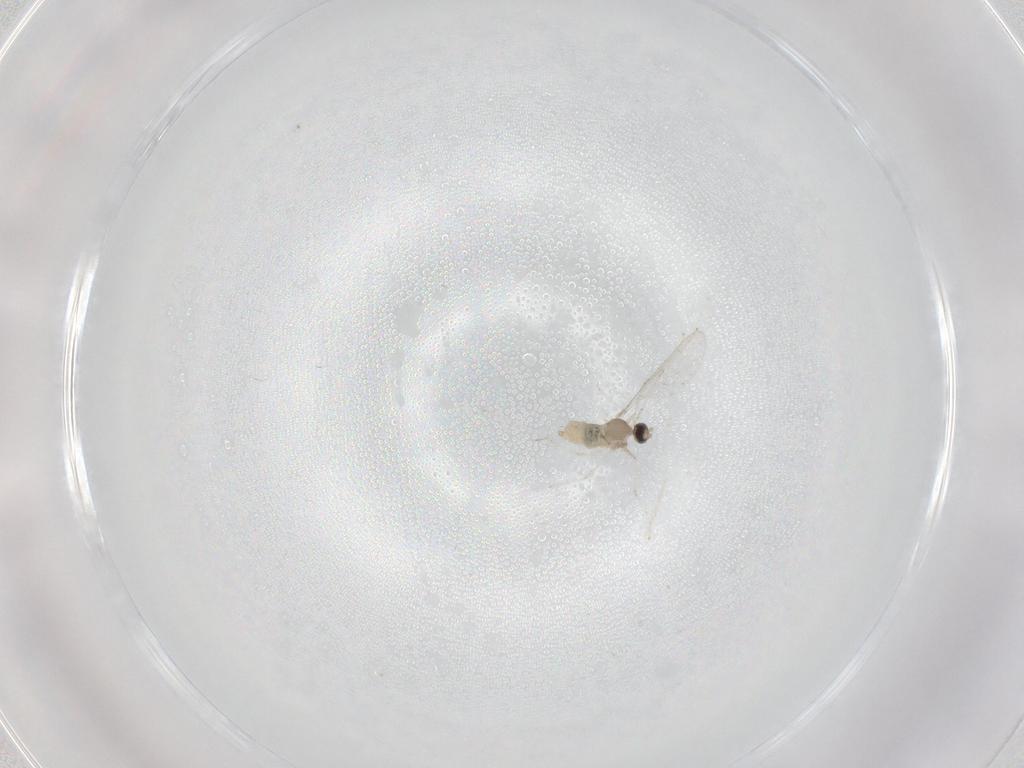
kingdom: Animalia
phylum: Arthropoda
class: Insecta
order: Diptera
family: Cecidomyiidae
